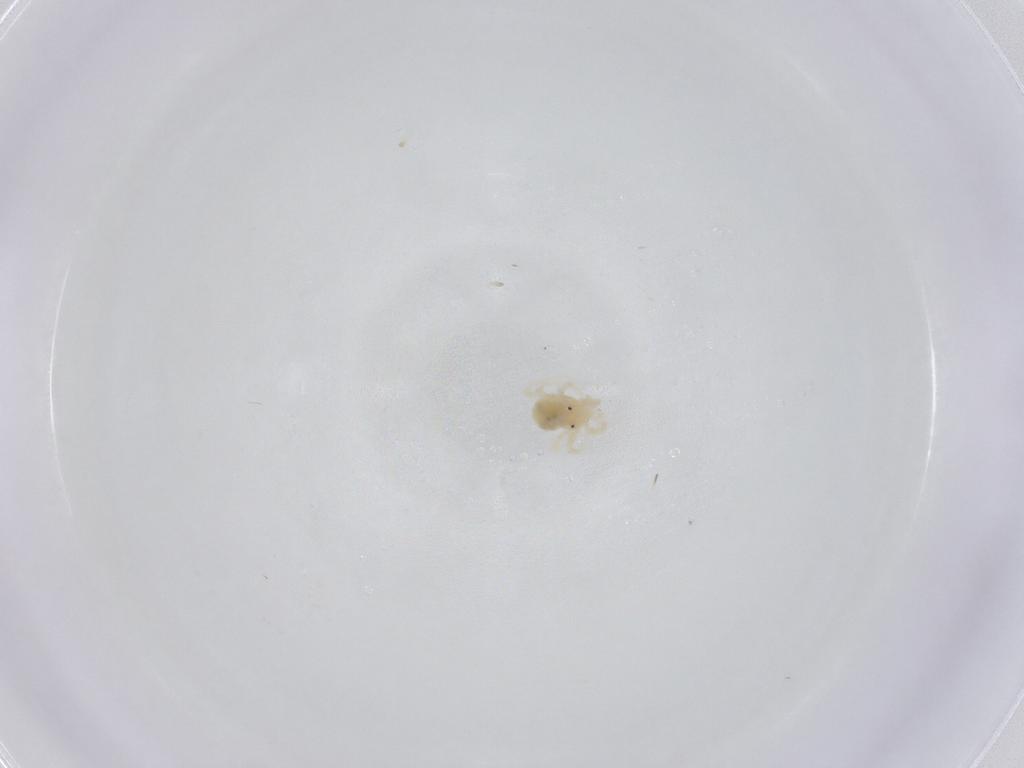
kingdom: Animalia
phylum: Arthropoda
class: Arachnida
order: Trombidiformes
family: Anystidae
